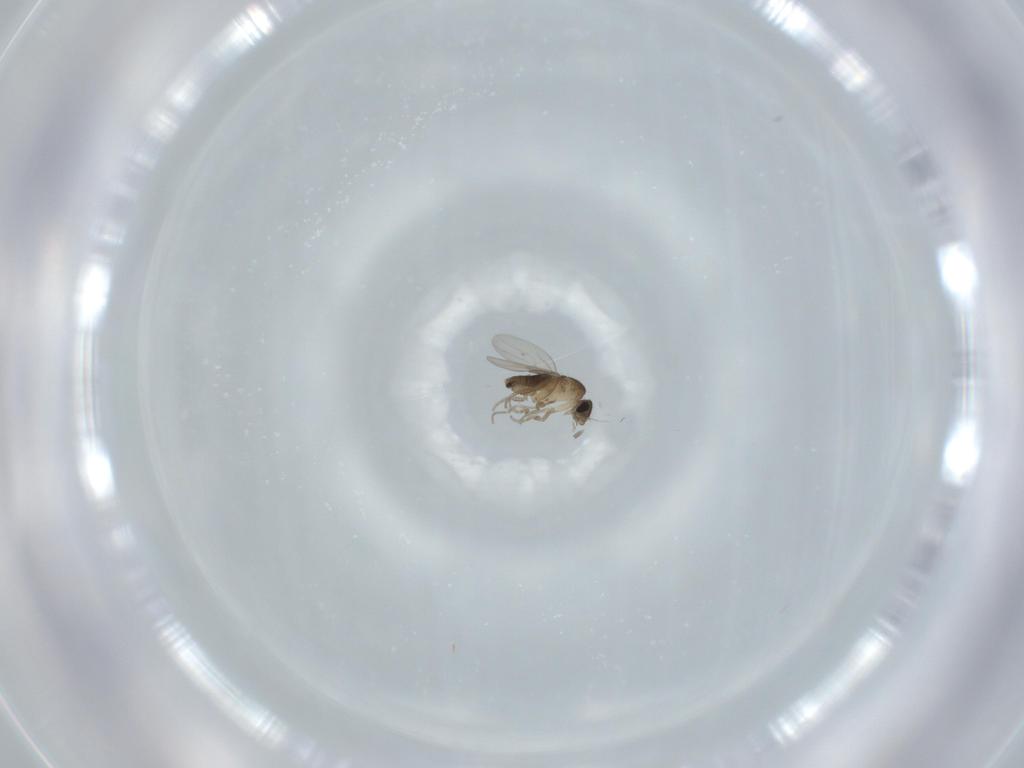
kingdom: Animalia
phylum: Arthropoda
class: Insecta
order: Diptera
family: Phoridae
